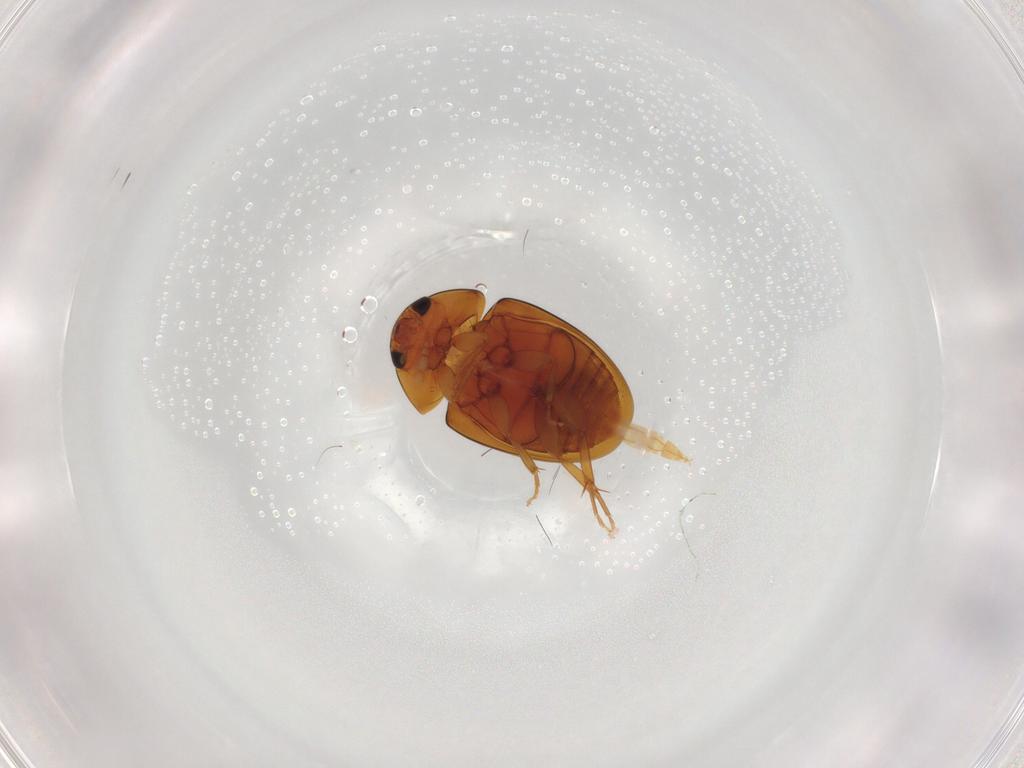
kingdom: Animalia
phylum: Arthropoda
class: Insecta
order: Coleoptera
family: Phalacridae
